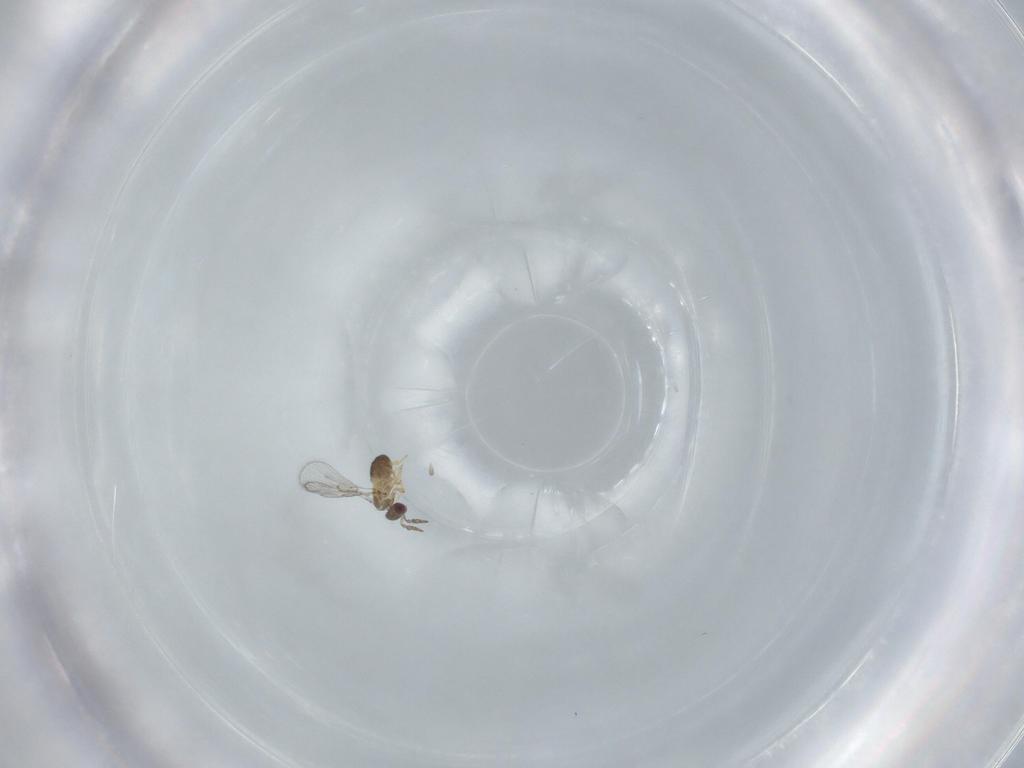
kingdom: Animalia
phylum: Arthropoda
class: Insecta
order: Hymenoptera
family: Trichogrammatidae
